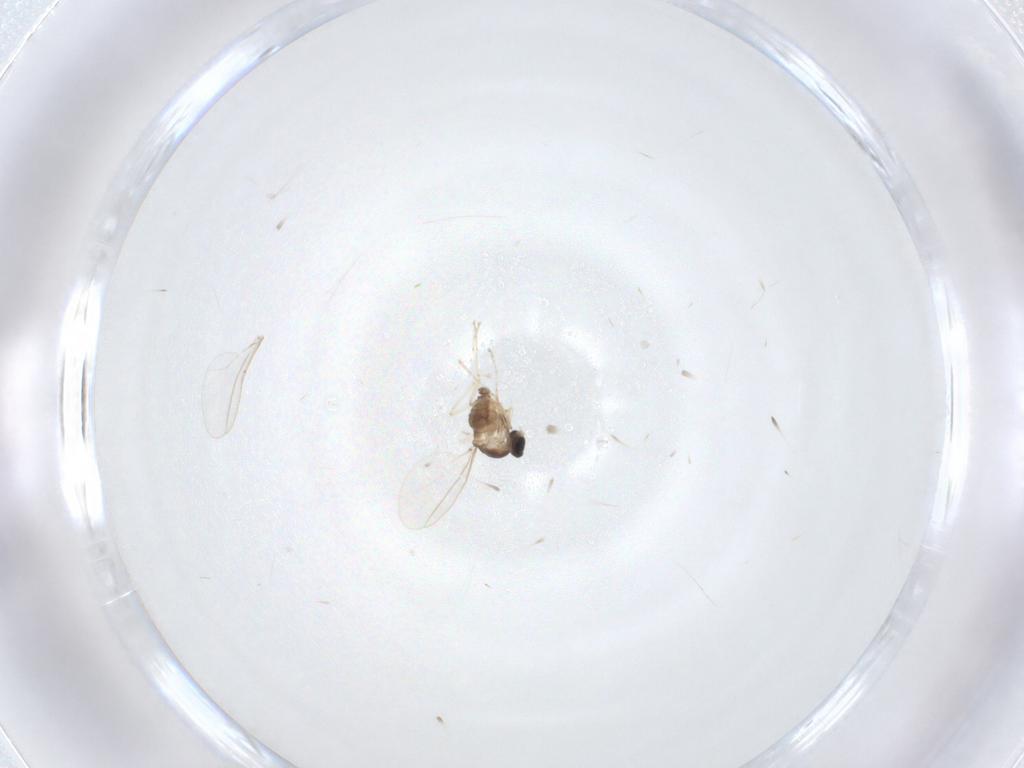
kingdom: Animalia
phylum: Arthropoda
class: Insecta
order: Diptera
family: Cecidomyiidae
